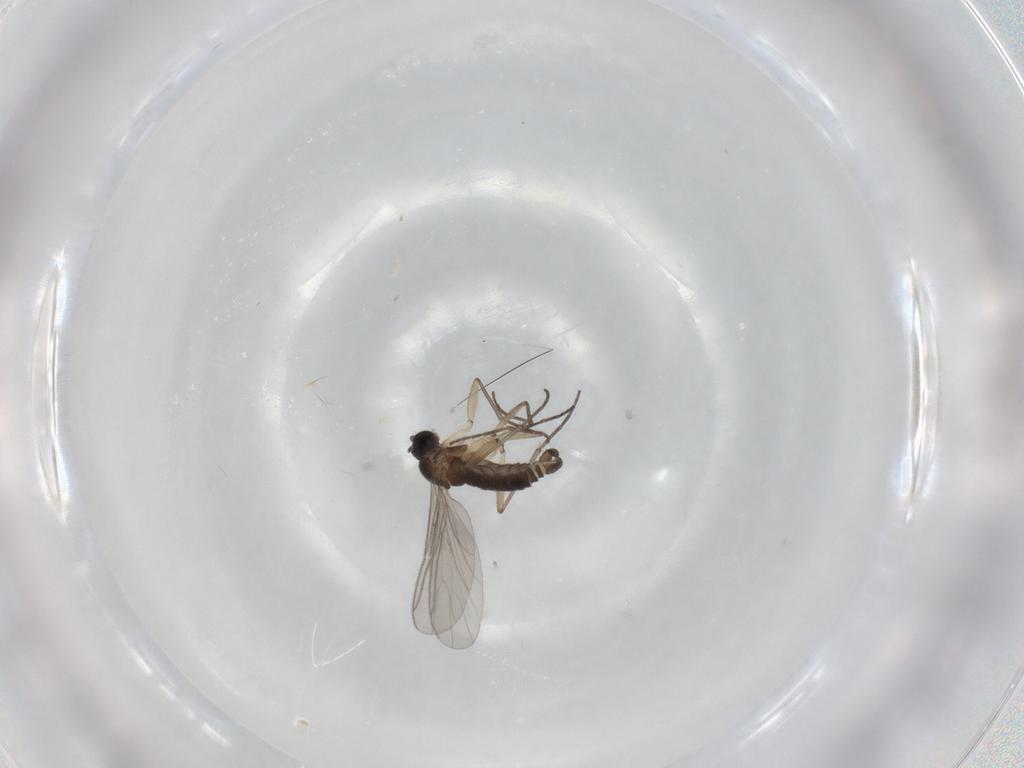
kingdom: Animalia
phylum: Arthropoda
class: Insecta
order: Diptera
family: Sciaridae
